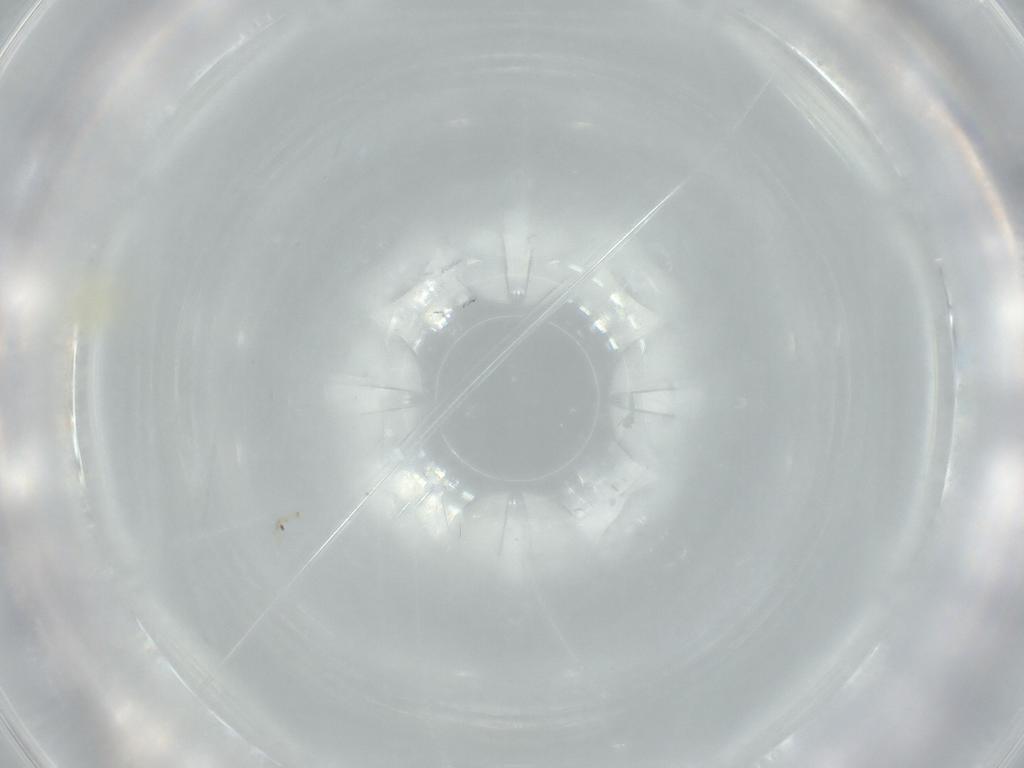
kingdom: Animalia
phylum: Arthropoda
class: Insecta
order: Hemiptera
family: Miridae
